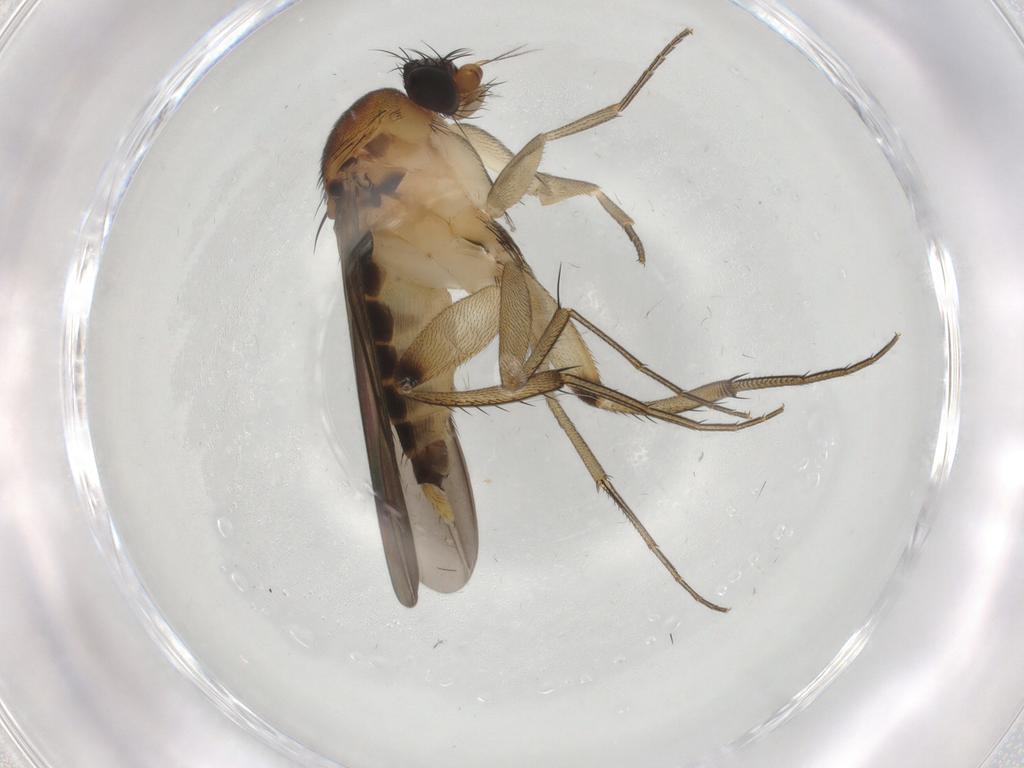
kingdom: Animalia
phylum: Arthropoda
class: Insecta
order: Diptera
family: Phoridae
